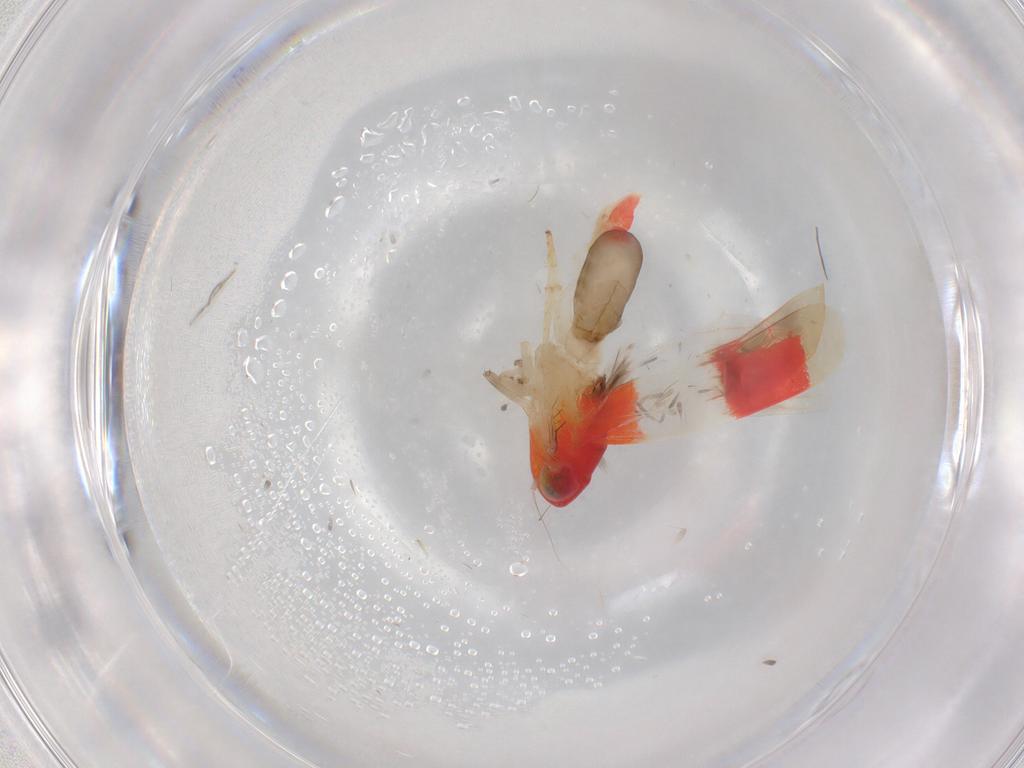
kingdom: Animalia
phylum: Arthropoda
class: Insecta
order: Hemiptera
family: Cicadellidae
